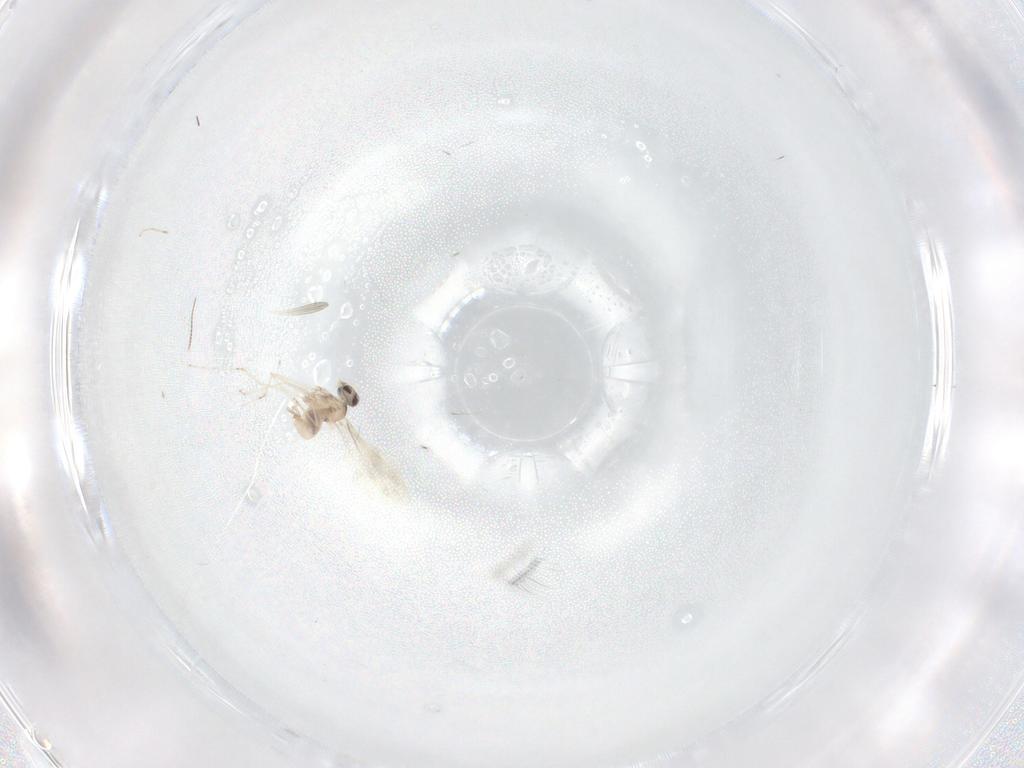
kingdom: Animalia
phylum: Arthropoda
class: Insecta
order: Diptera
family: Cecidomyiidae
